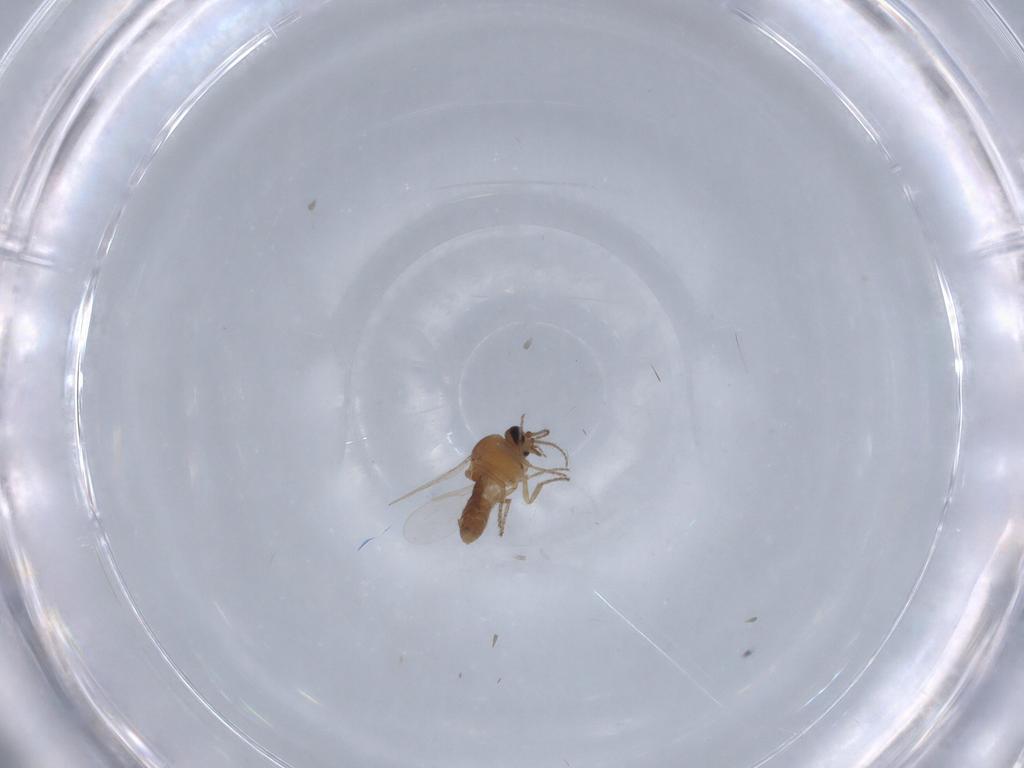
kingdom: Animalia
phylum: Arthropoda
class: Insecta
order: Diptera
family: Ceratopogonidae
